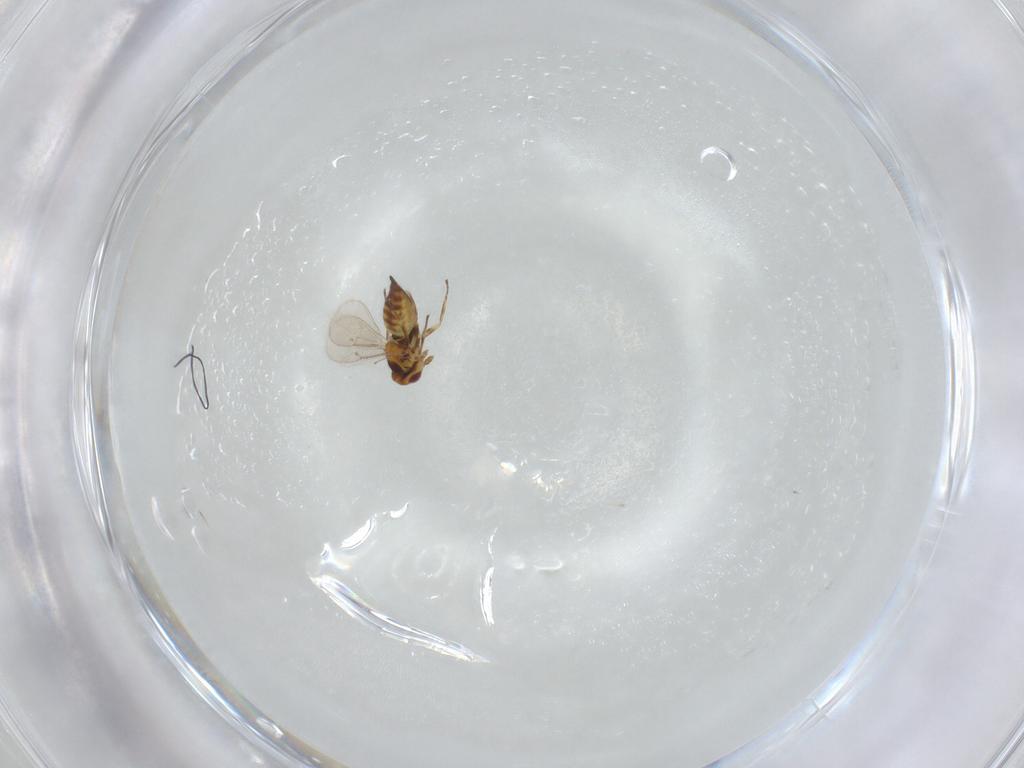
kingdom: Animalia
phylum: Arthropoda
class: Insecta
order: Hymenoptera
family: Eulophidae
